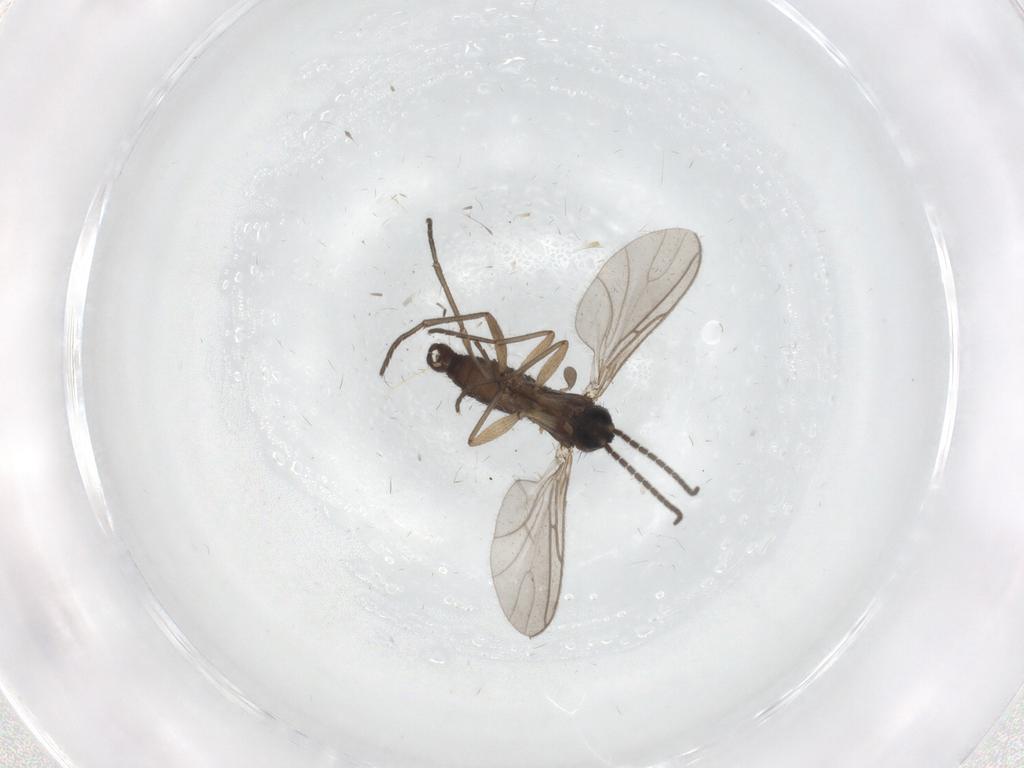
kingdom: Animalia
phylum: Arthropoda
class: Insecta
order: Diptera
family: Sciaridae
